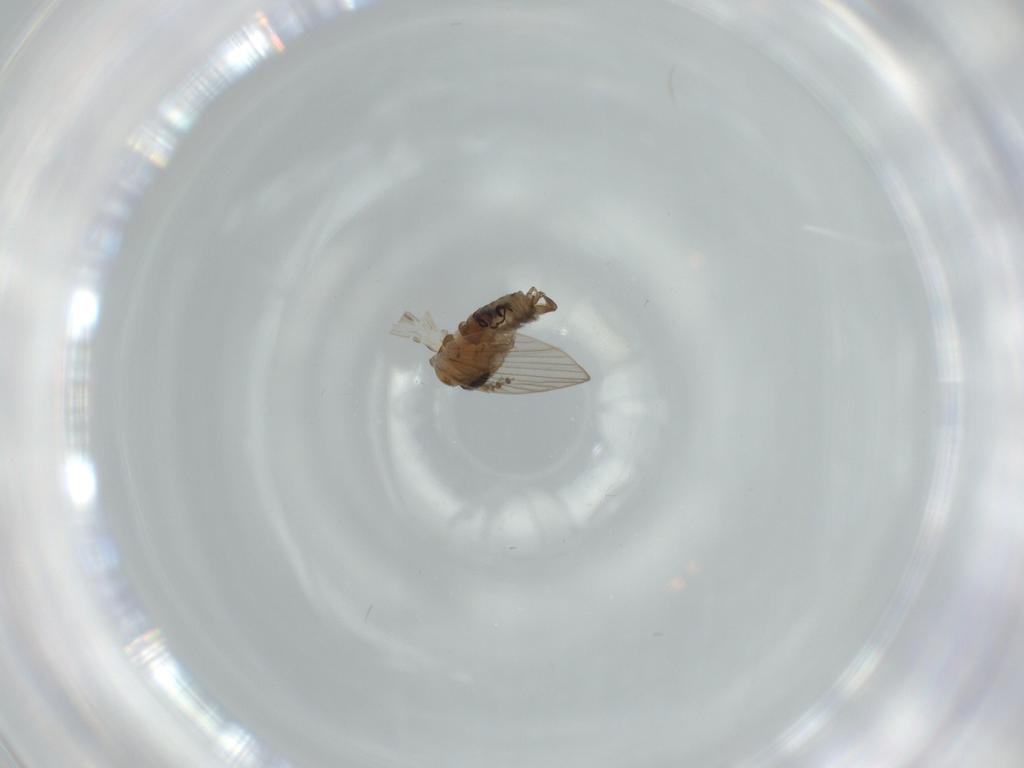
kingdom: Animalia
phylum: Arthropoda
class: Insecta
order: Diptera
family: Psychodidae
